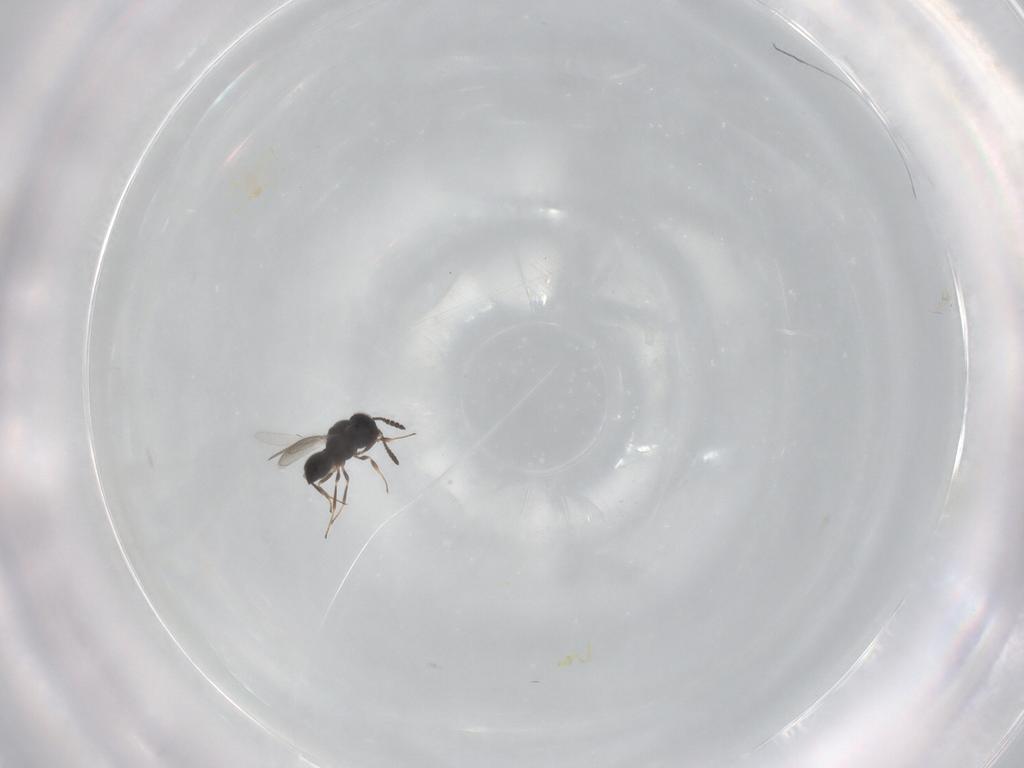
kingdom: Animalia
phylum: Arthropoda
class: Insecta
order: Hymenoptera
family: Scelionidae
